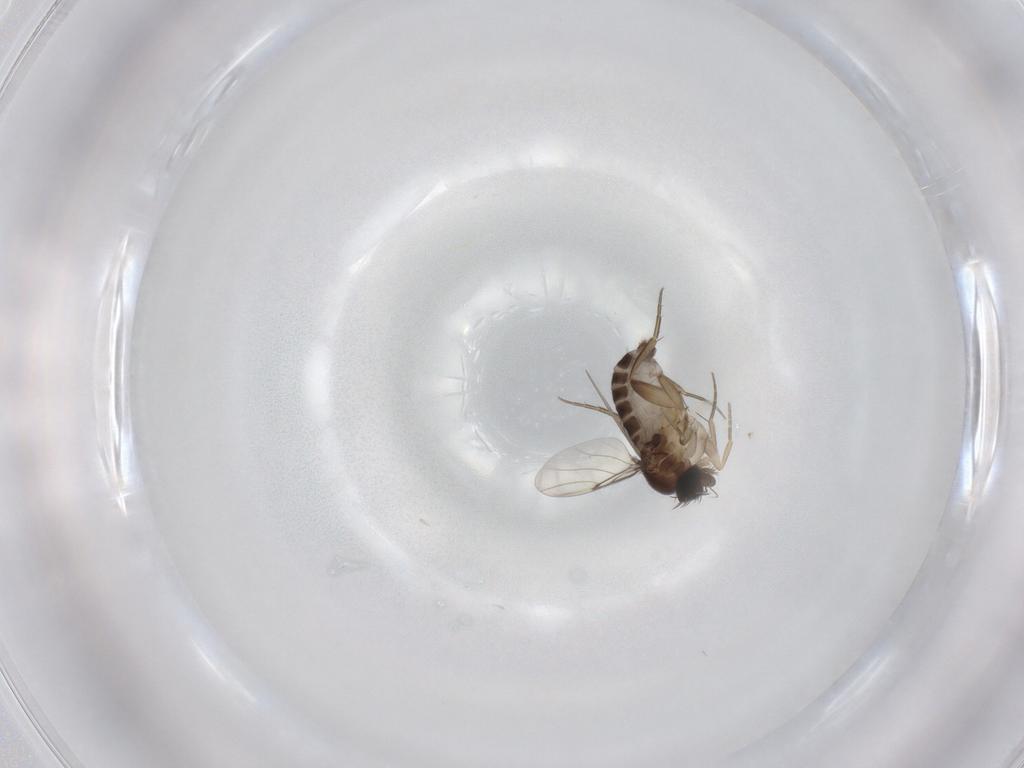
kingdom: Animalia
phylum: Arthropoda
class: Insecta
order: Diptera
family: Phoridae
